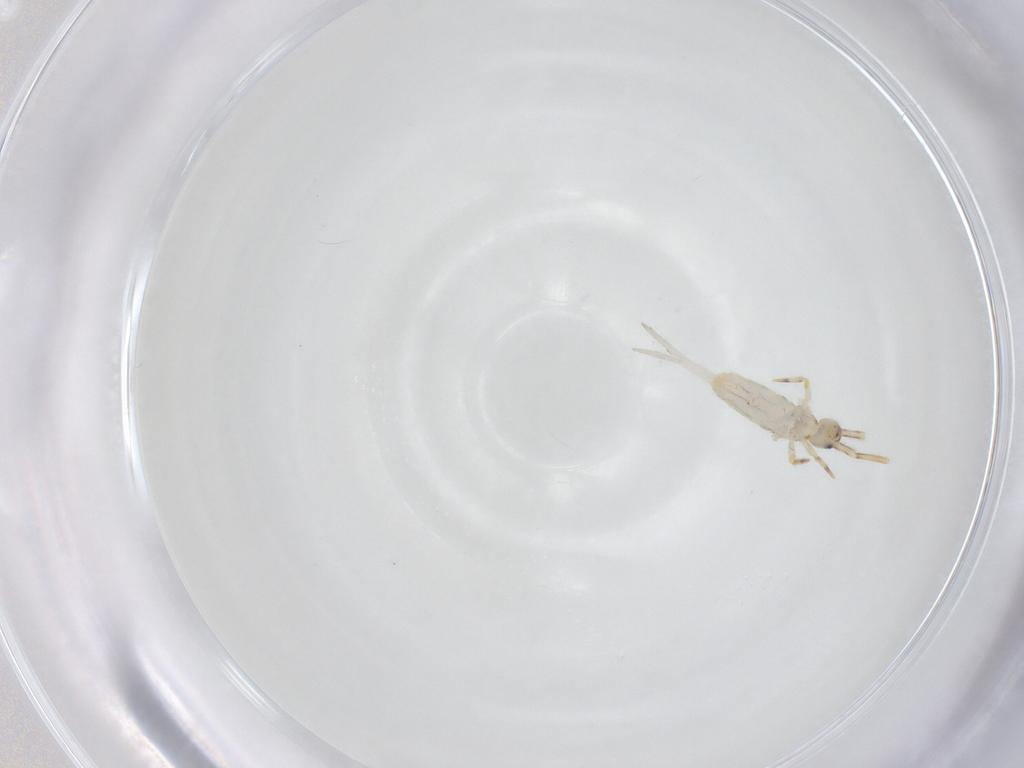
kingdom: Animalia
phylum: Arthropoda
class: Collembola
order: Entomobryomorpha
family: Entomobryidae
